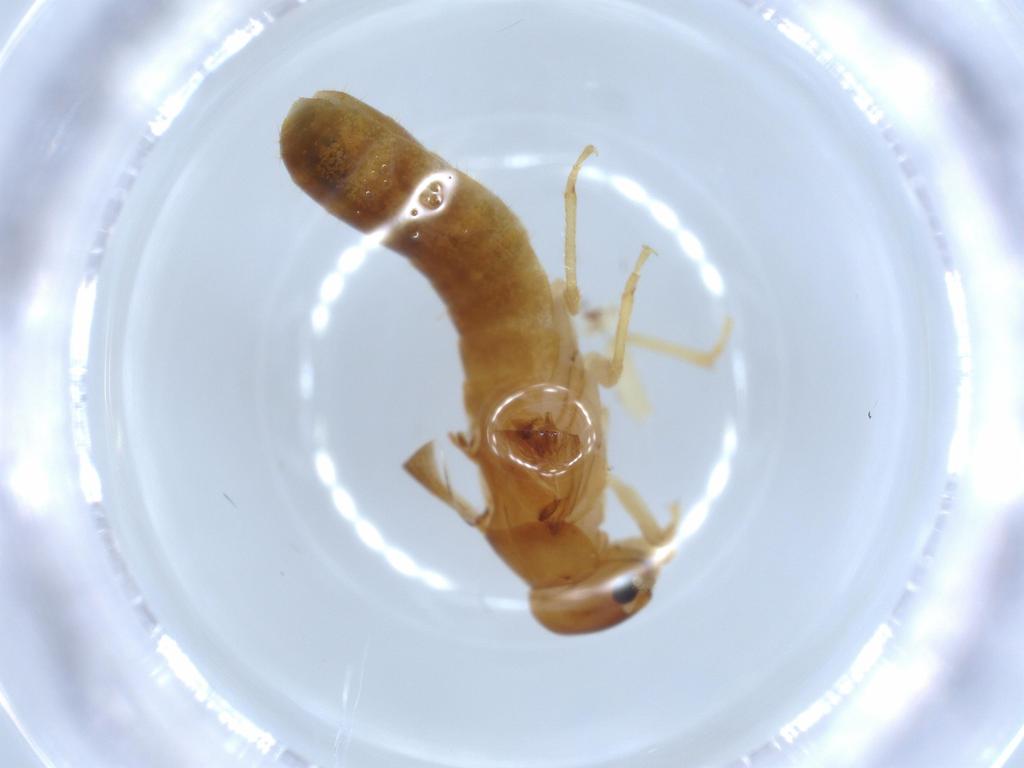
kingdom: Animalia
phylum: Arthropoda
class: Insecta
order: Blattodea
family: Kalotermitidae
